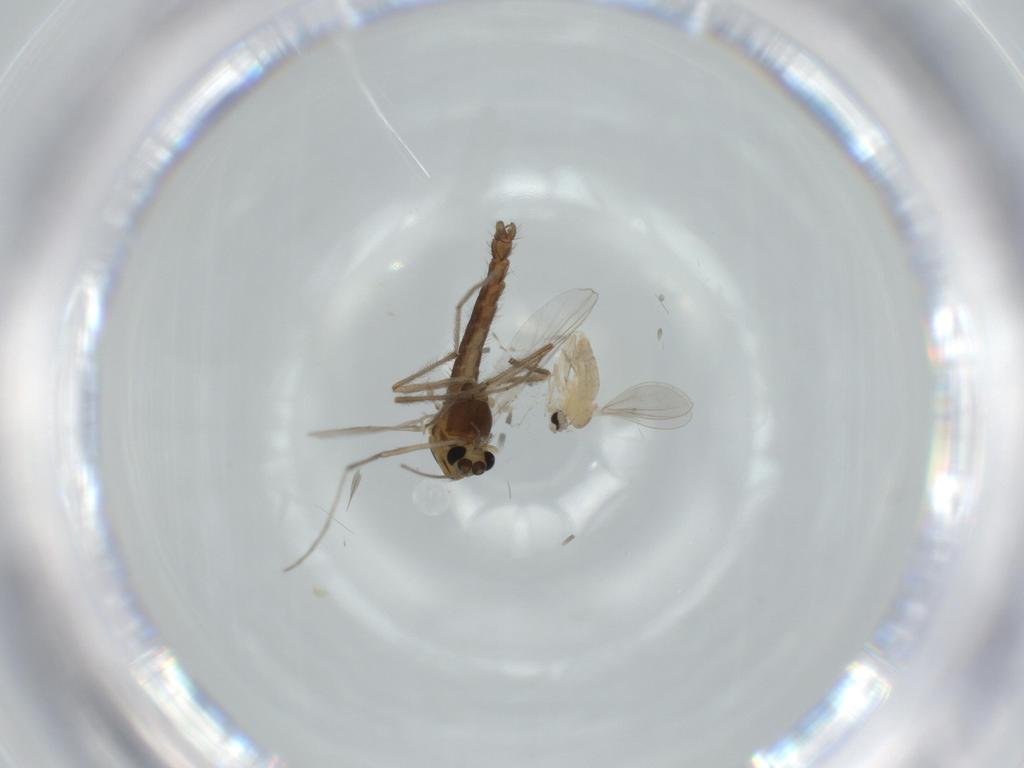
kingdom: Animalia
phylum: Arthropoda
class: Insecta
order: Diptera
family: Chironomidae
